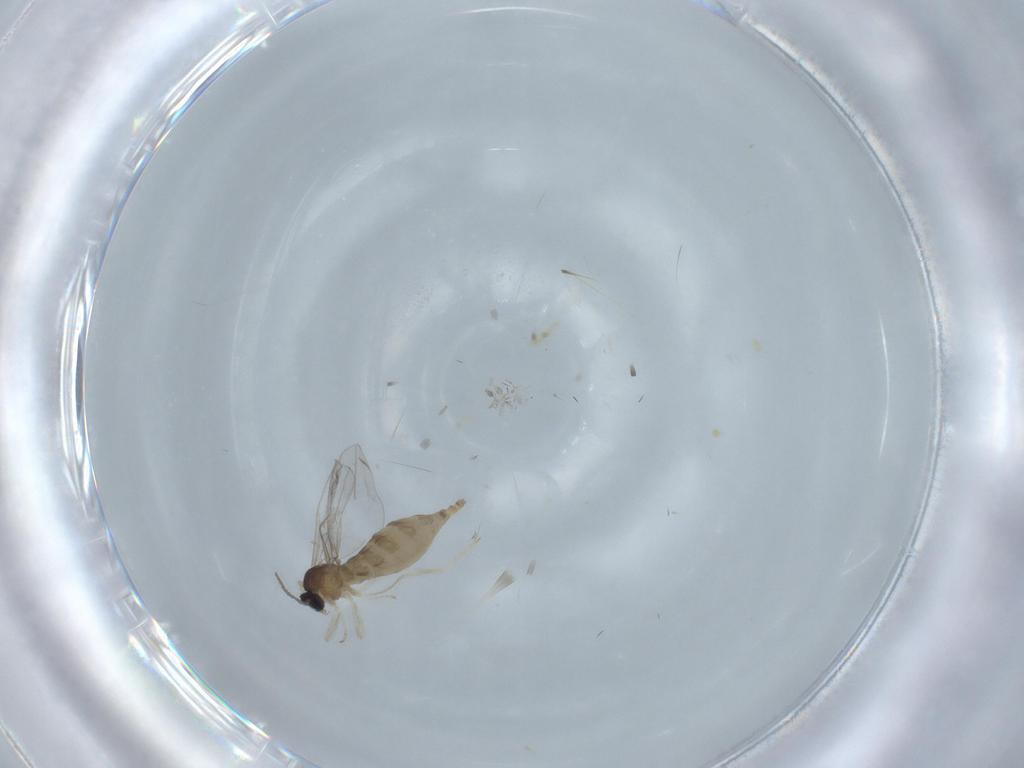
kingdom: Animalia
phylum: Arthropoda
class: Insecta
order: Diptera
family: Cecidomyiidae
